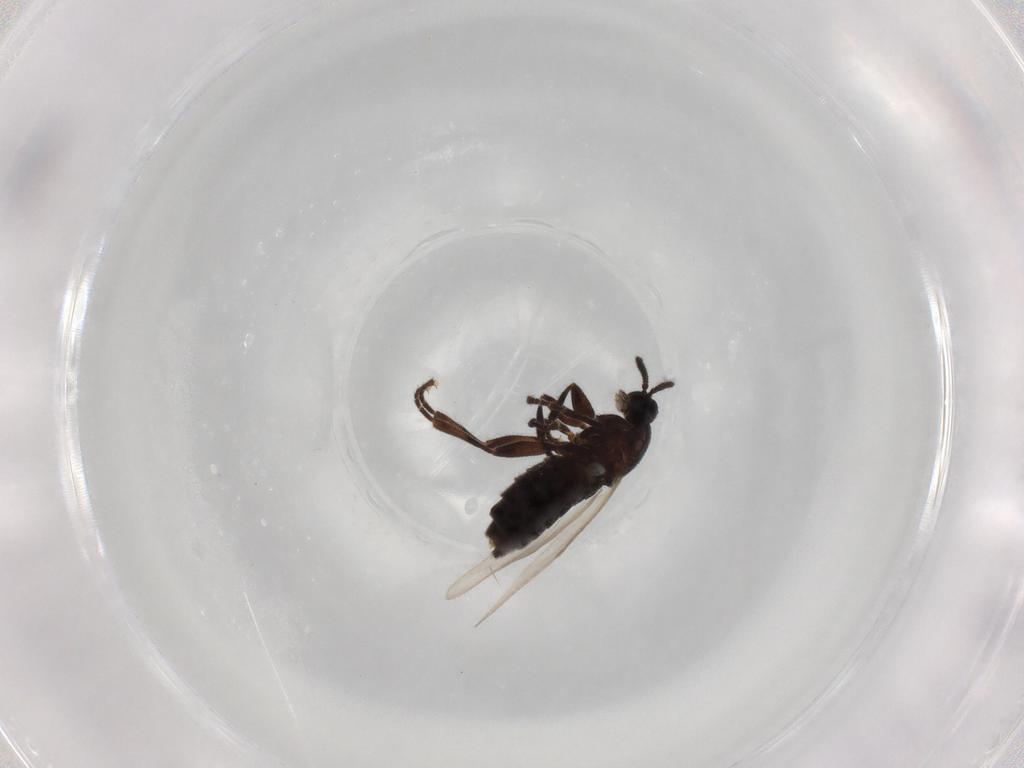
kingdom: Animalia
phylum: Arthropoda
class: Insecta
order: Diptera
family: Scatopsidae
